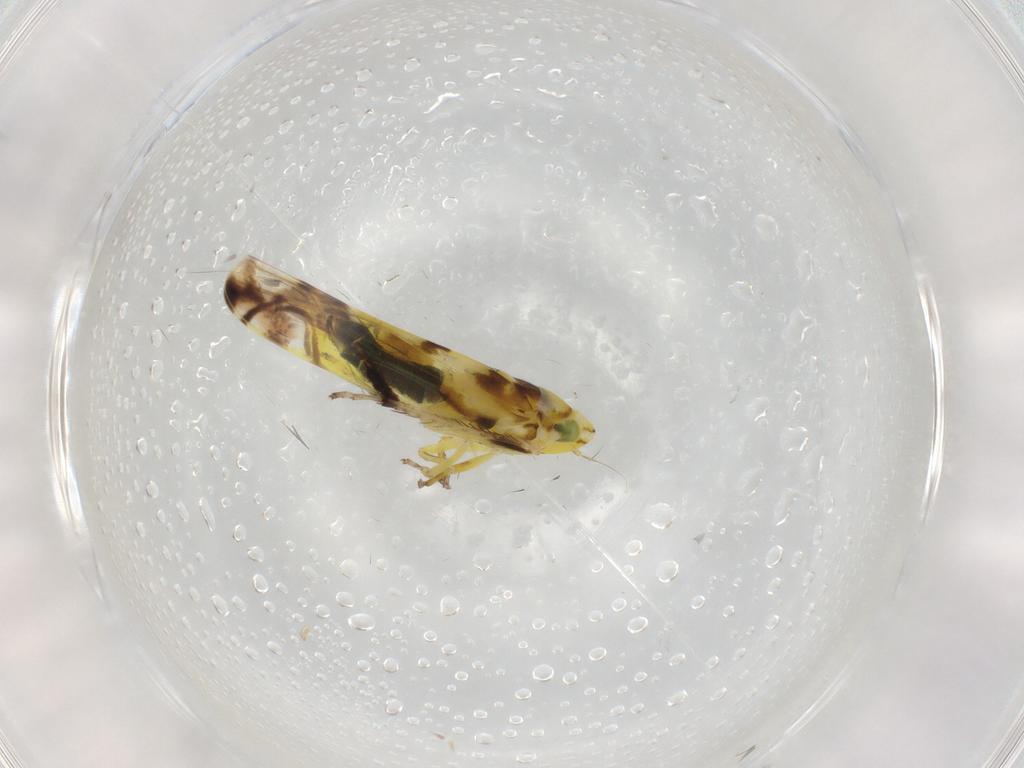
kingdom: Animalia
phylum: Arthropoda
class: Insecta
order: Hemiptera
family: Cicadellidae
